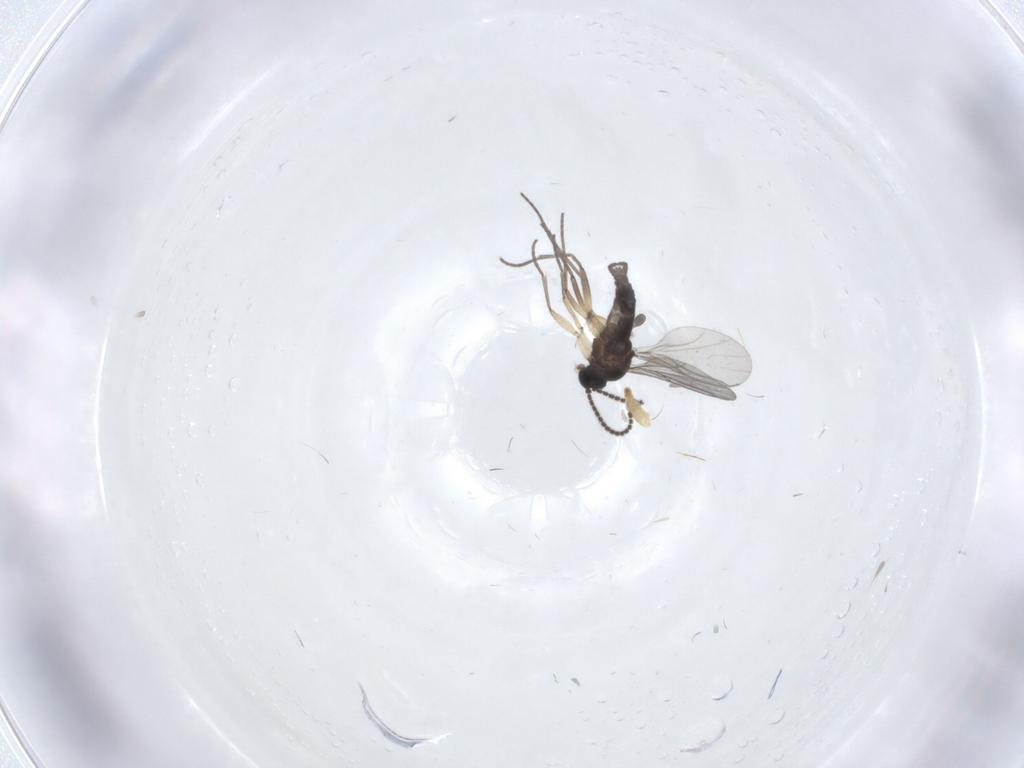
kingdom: Animalia
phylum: Arthropoda
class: Insecta
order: Diptera
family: Sciaridae
